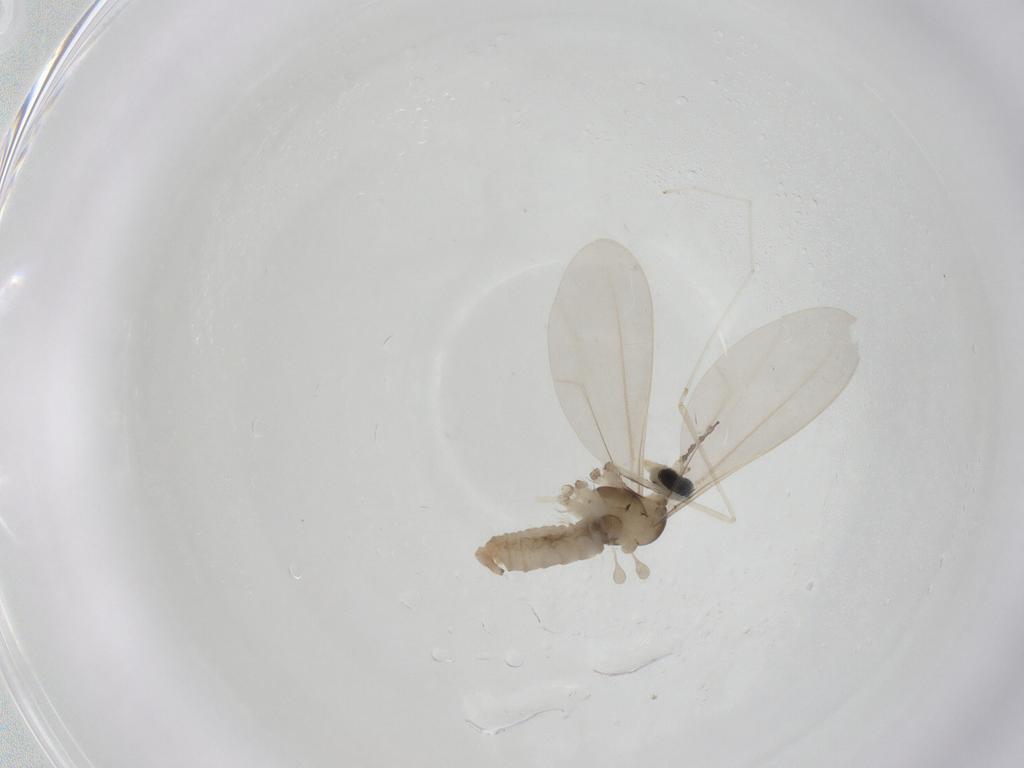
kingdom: Animalia
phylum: Arthropoda
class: Insecta
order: Diptera
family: Cecidomyiidae
